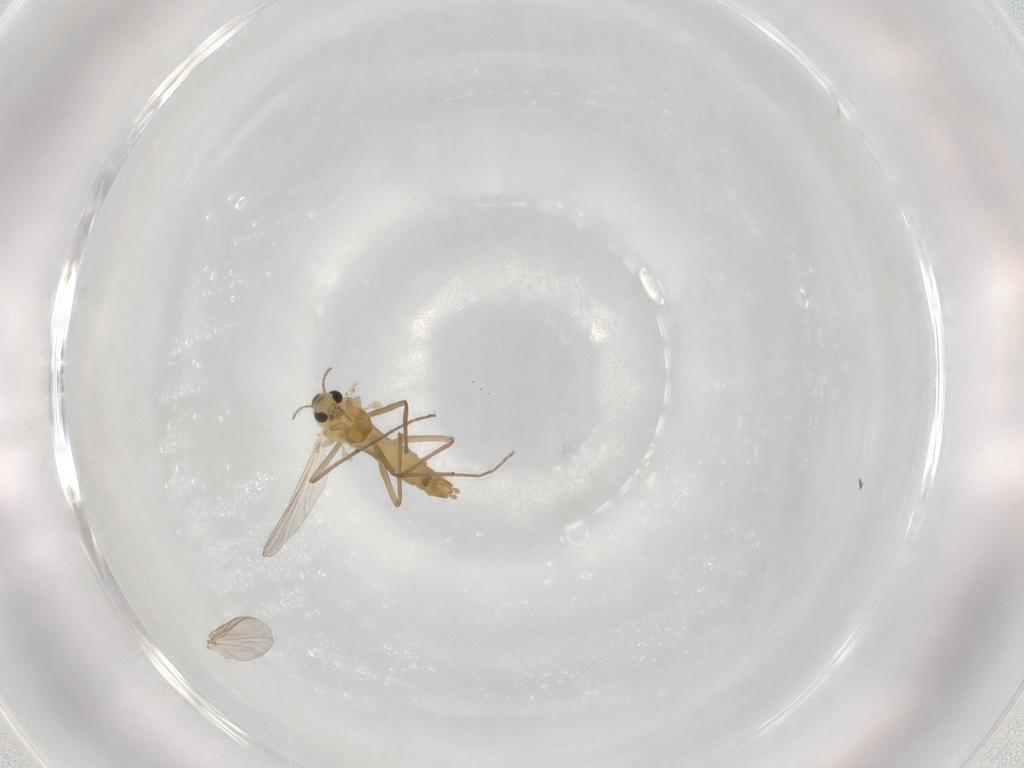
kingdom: Animalia
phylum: Arthropoda
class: Insecta
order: Diptera
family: Chironomidae
